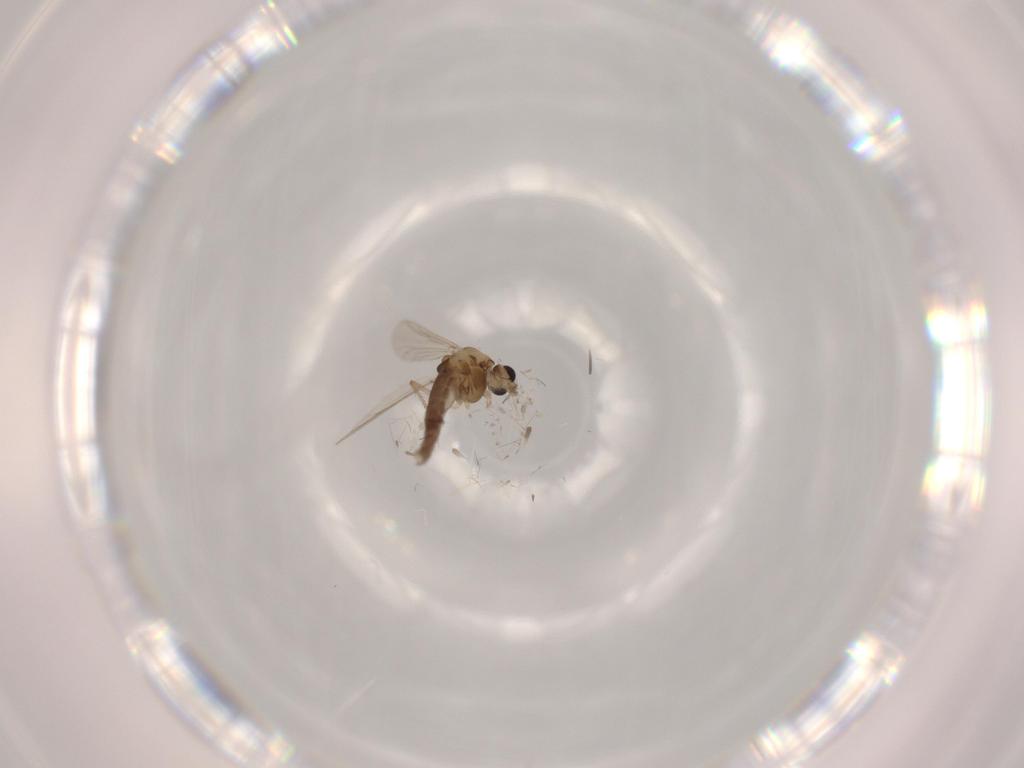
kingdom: Animalia
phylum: Arthropoda
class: Insecta
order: Diptera
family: Chironomidae
